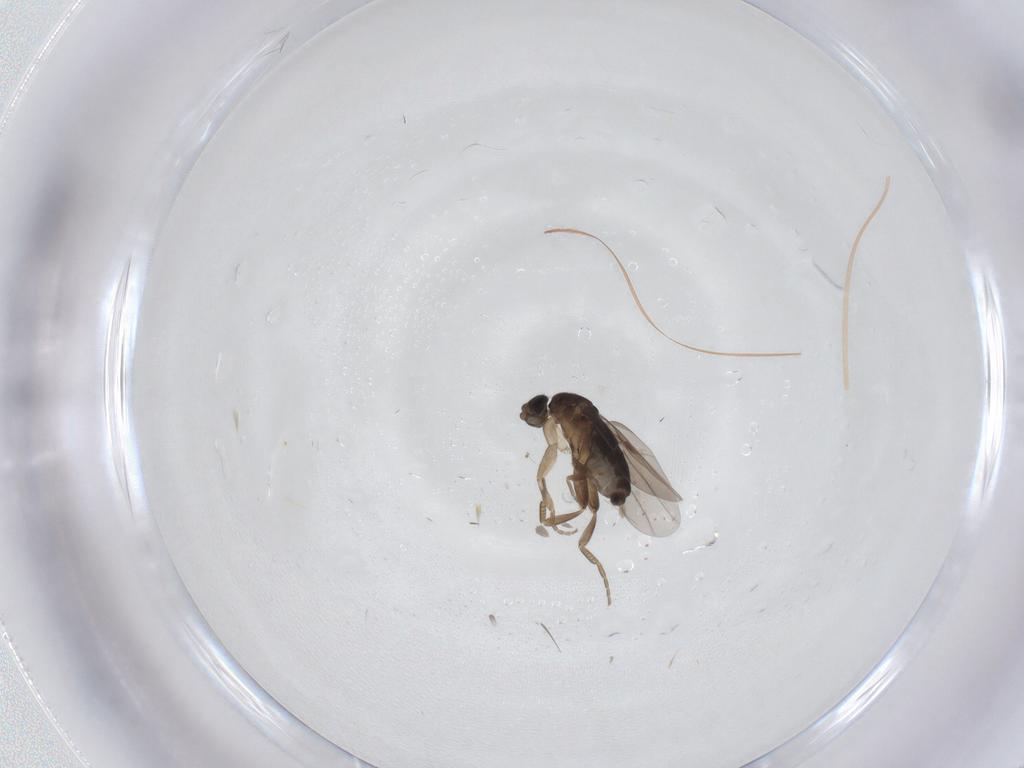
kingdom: Animalia
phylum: Arthropoda
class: Insecta
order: Diptera
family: Phoridae
